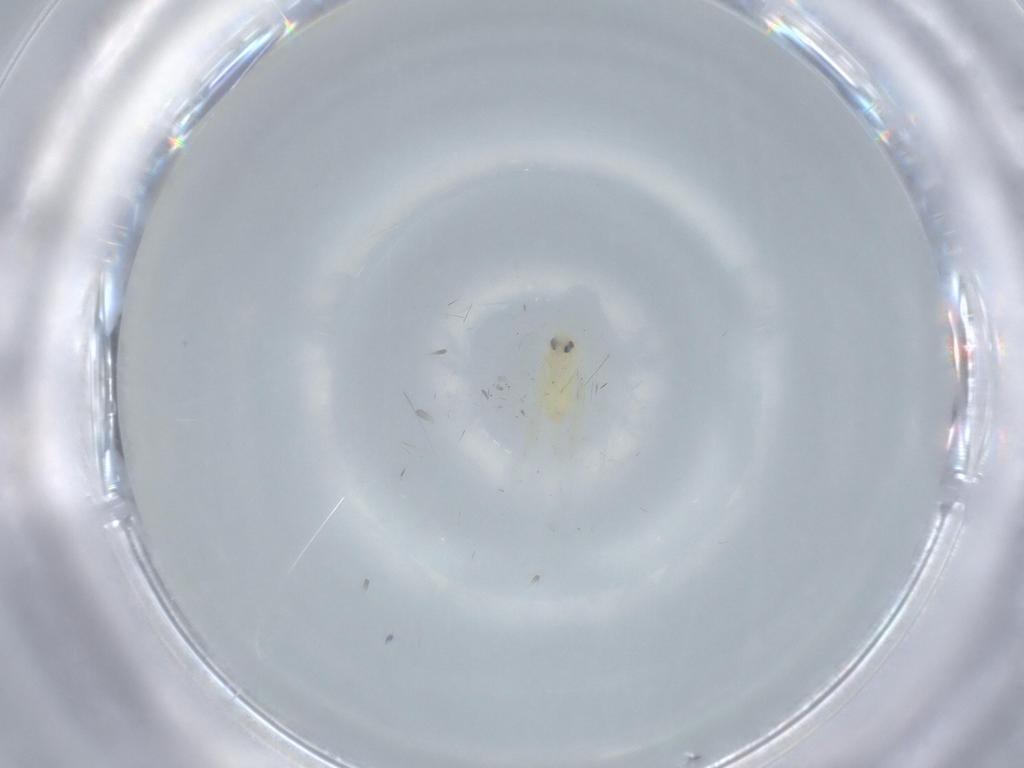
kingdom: Animalia
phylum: Arthropoda
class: Insecta
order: Hemiptera
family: Aleyrodidae
